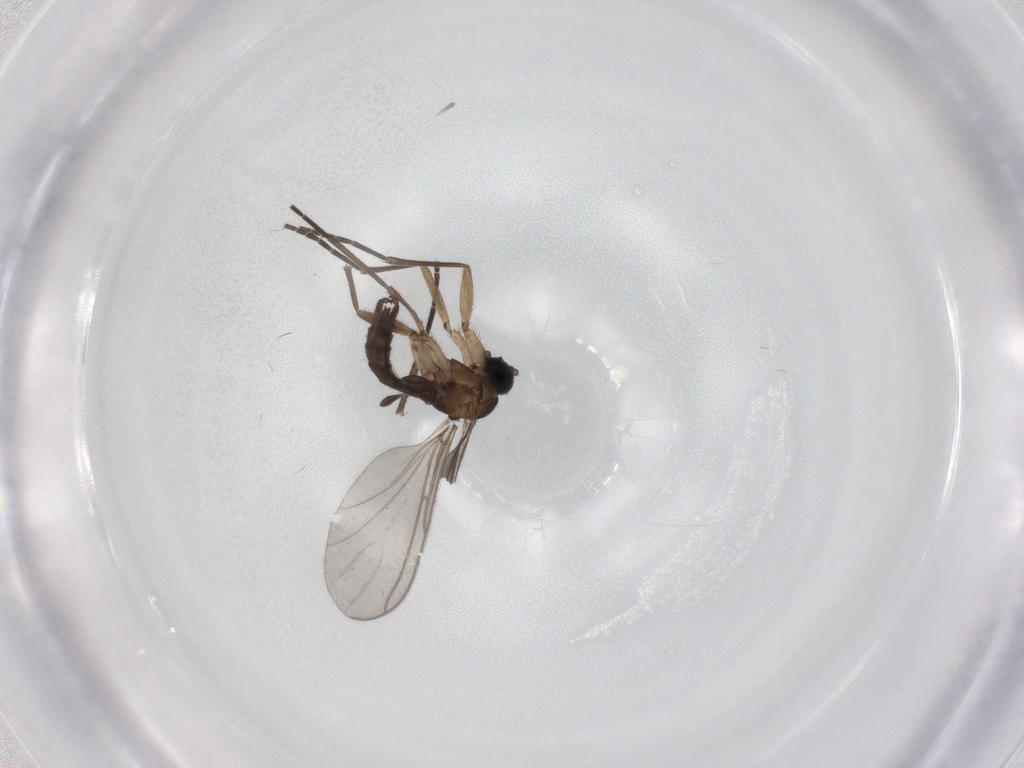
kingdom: Animalia
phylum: Arthropoda
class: Insecta
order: Diptera
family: Sciaridae
